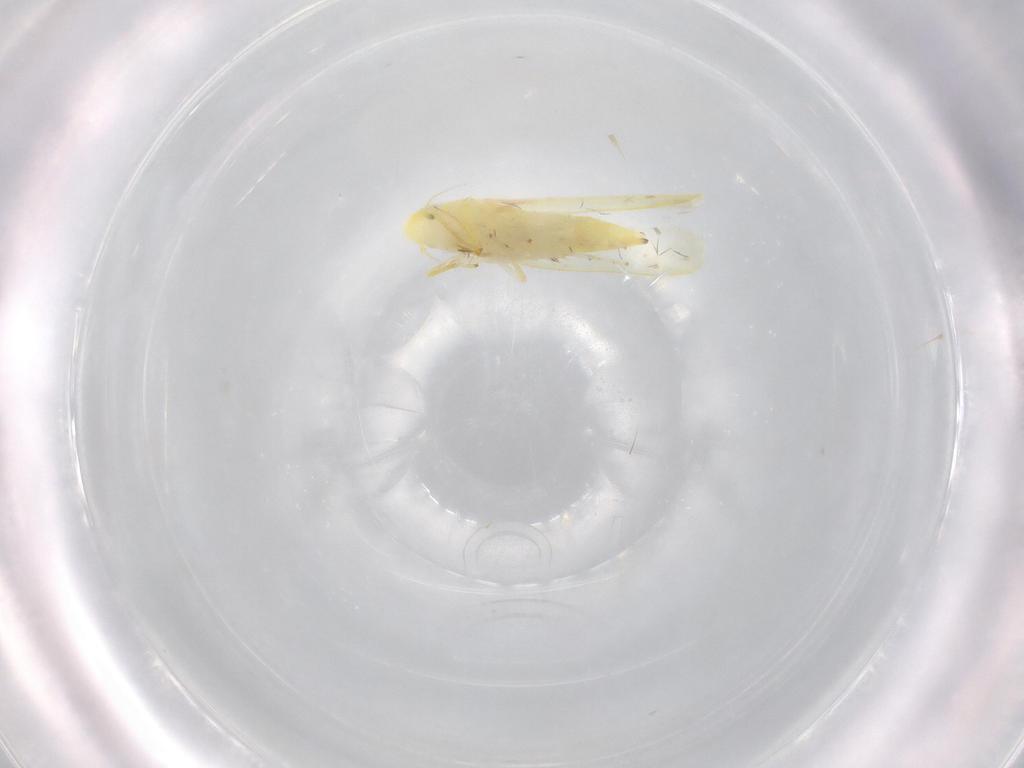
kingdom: Animalia
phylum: Arthropoda
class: Insecta
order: Hemiptera
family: Cicadellidae
